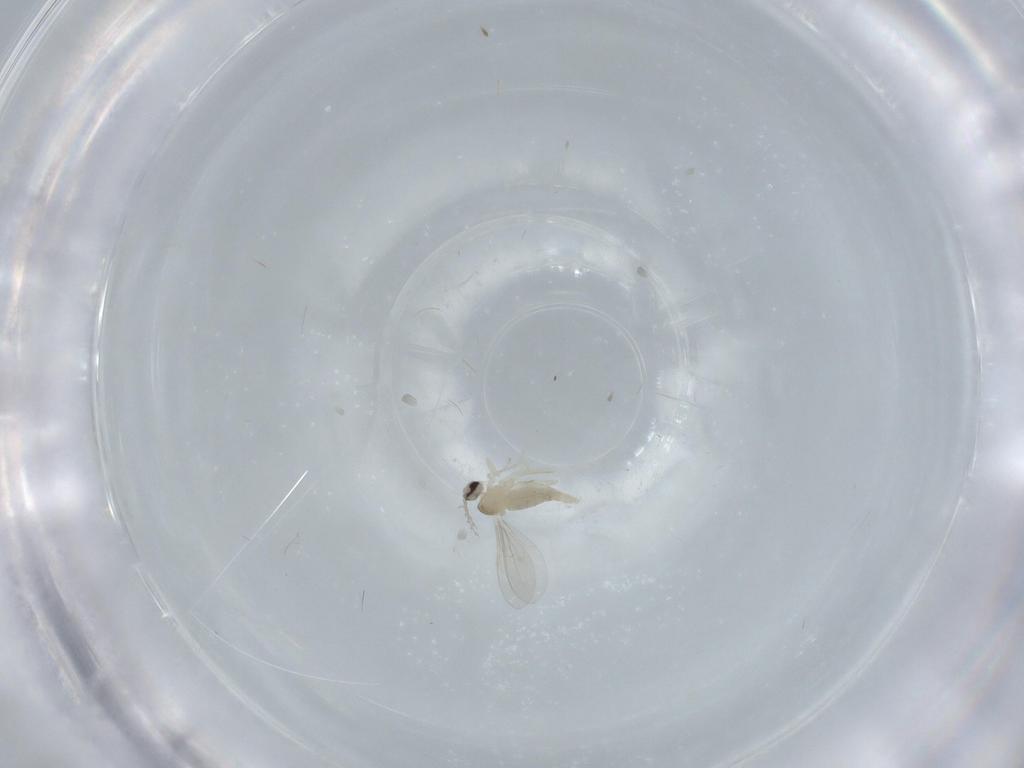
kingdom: Animalia
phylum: Arthropoda
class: Insecta
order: Diptera
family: Cecidomyiidae
